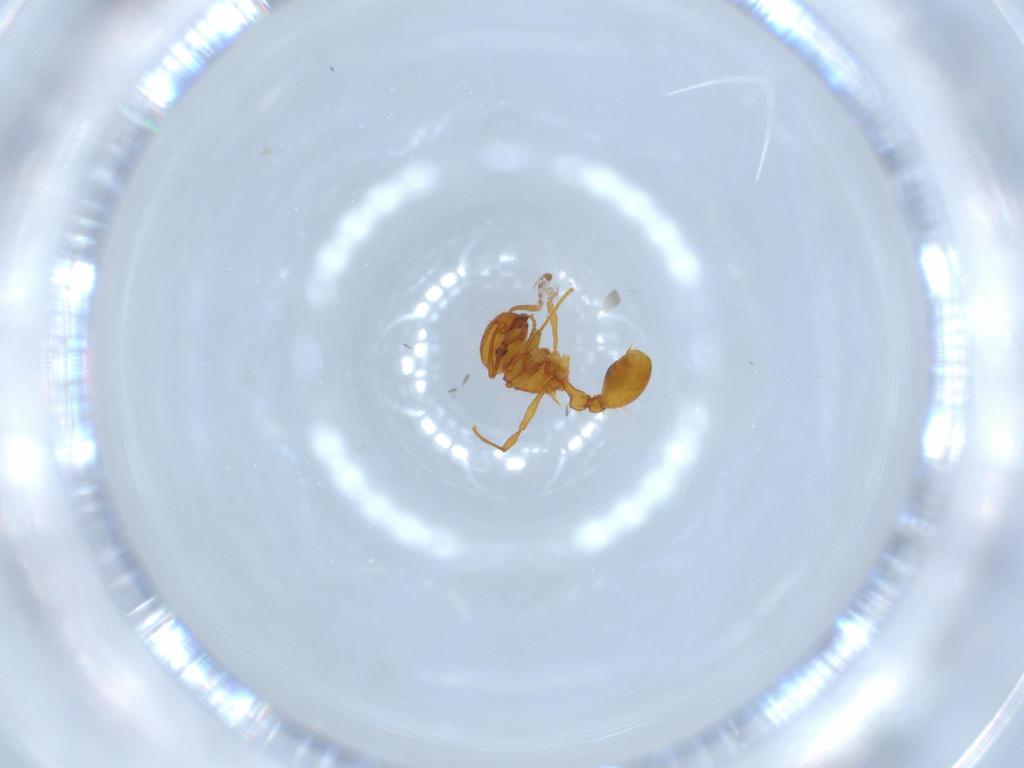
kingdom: Animalia
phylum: Arthropoda
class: Insecta
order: Hymenoptera
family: Formicidae
